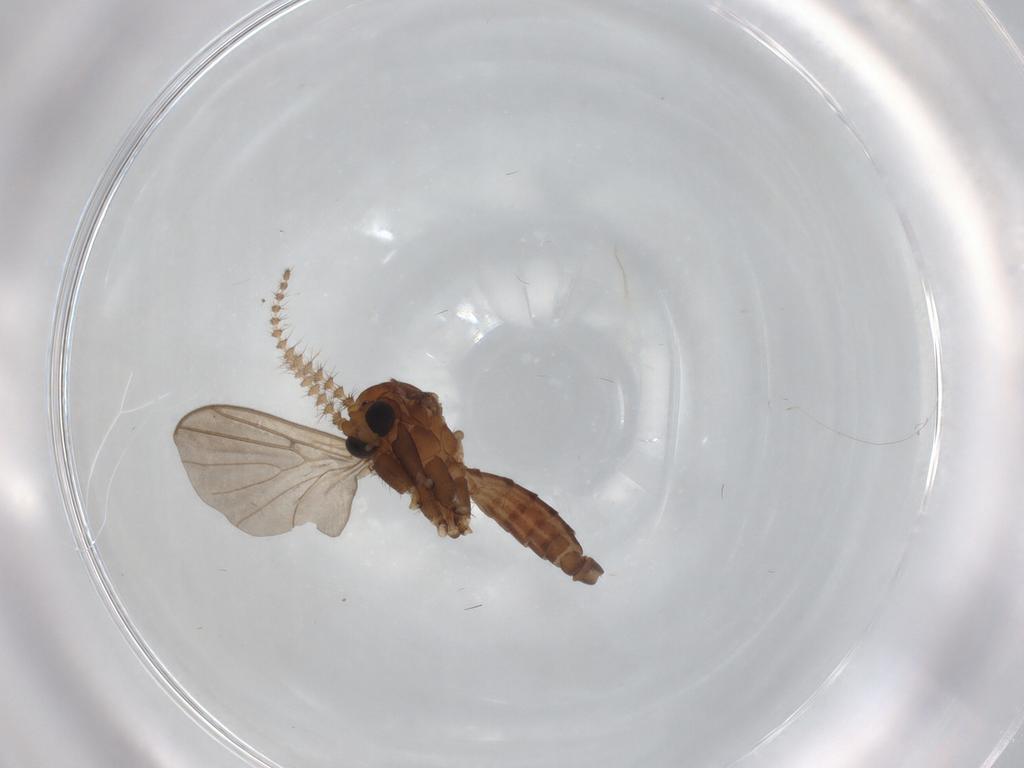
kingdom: Animalia
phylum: Arthropoda
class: Insecta
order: Diptera
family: Mycetophilidae
